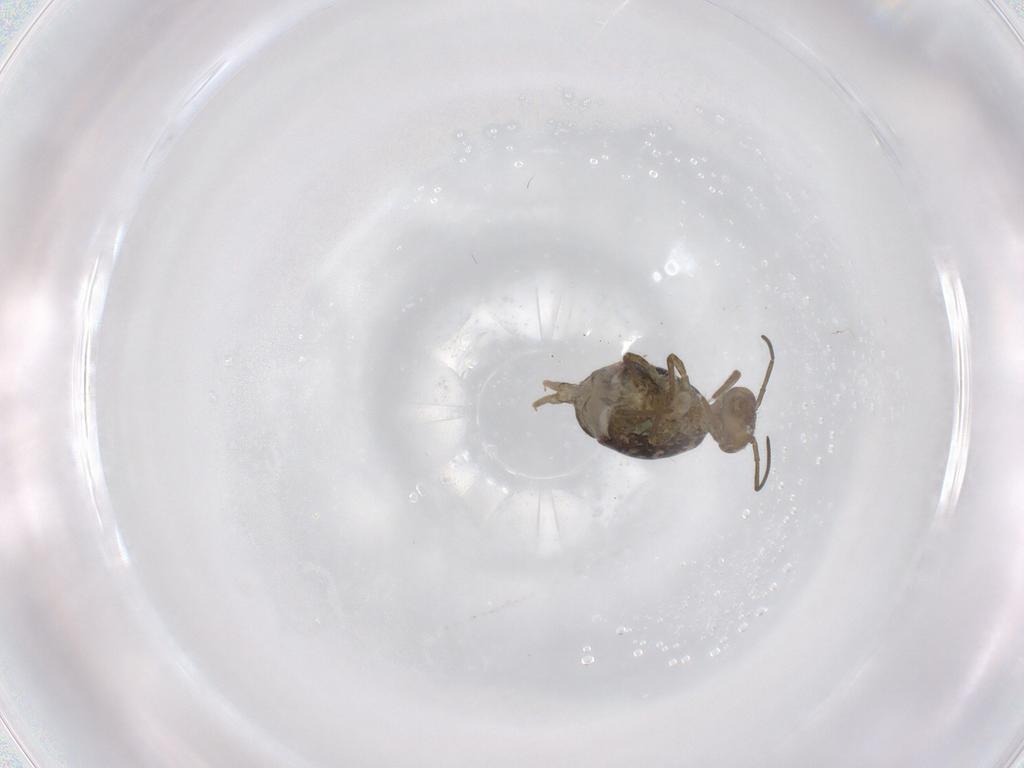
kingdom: Animalia
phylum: Arthropoda
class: Collembola
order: Symphypleona
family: Sminthuridae
